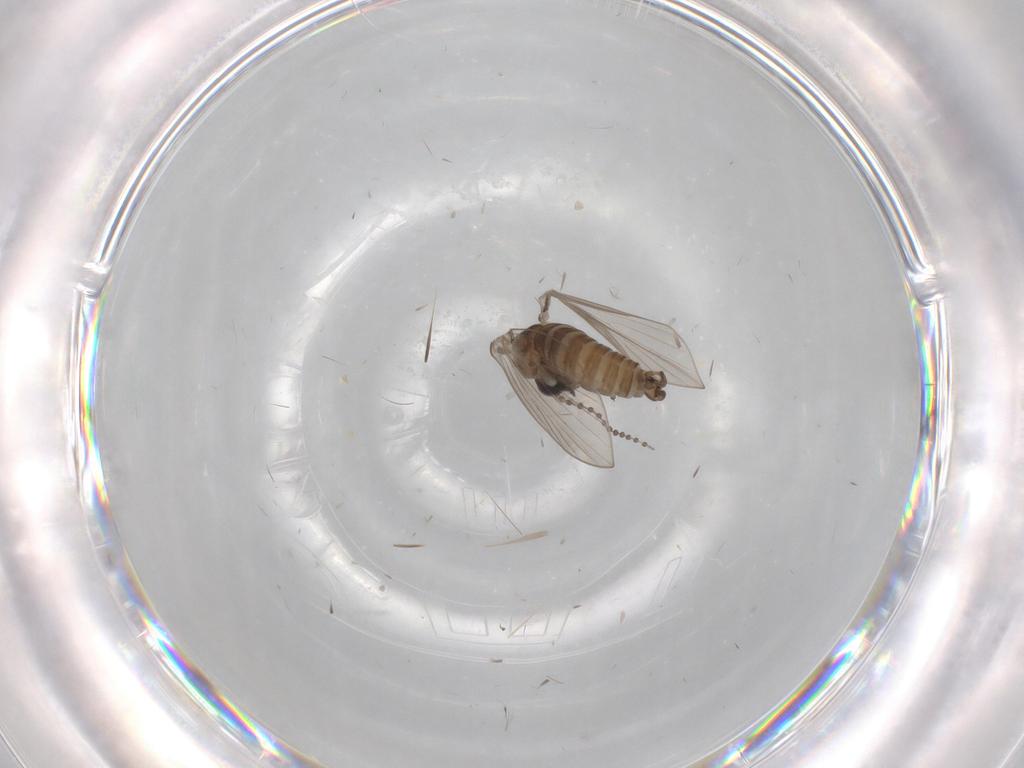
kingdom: Animalia
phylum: Arthropoda
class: Insecta
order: Diptera
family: Psychodidae
